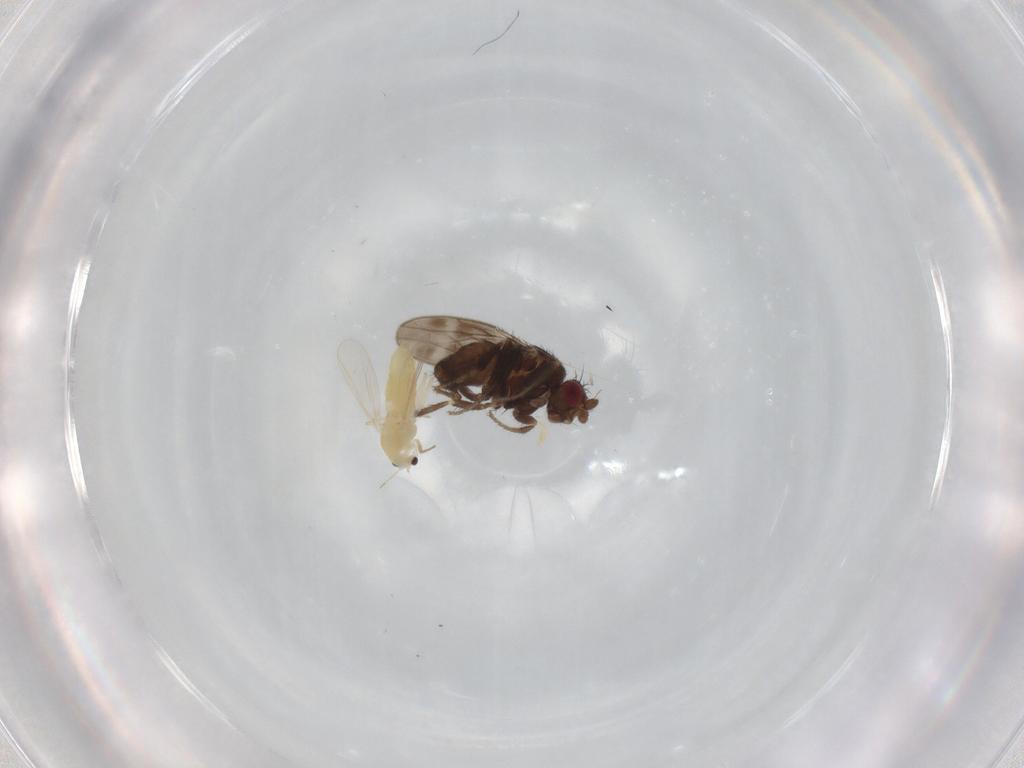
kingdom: Animalia
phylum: Arthropoda
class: Insecta
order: Diptera
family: Sphaeroceridae
